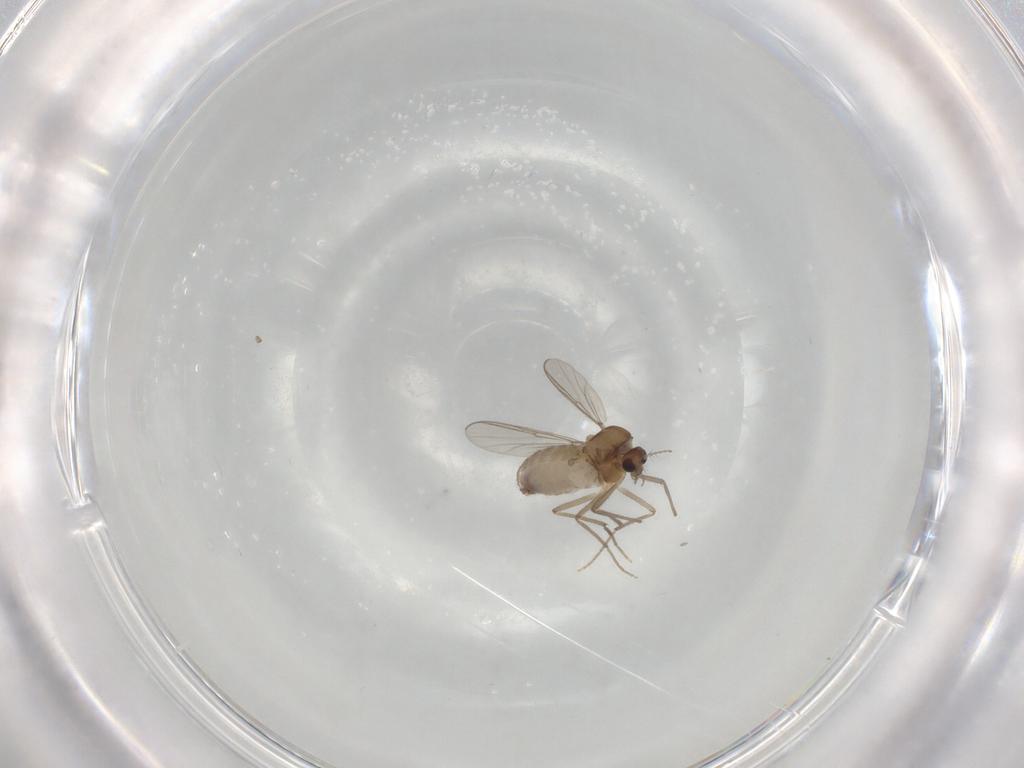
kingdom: Animalia
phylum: Arthropoda
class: Insecta
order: Diptera
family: Chironomidae
